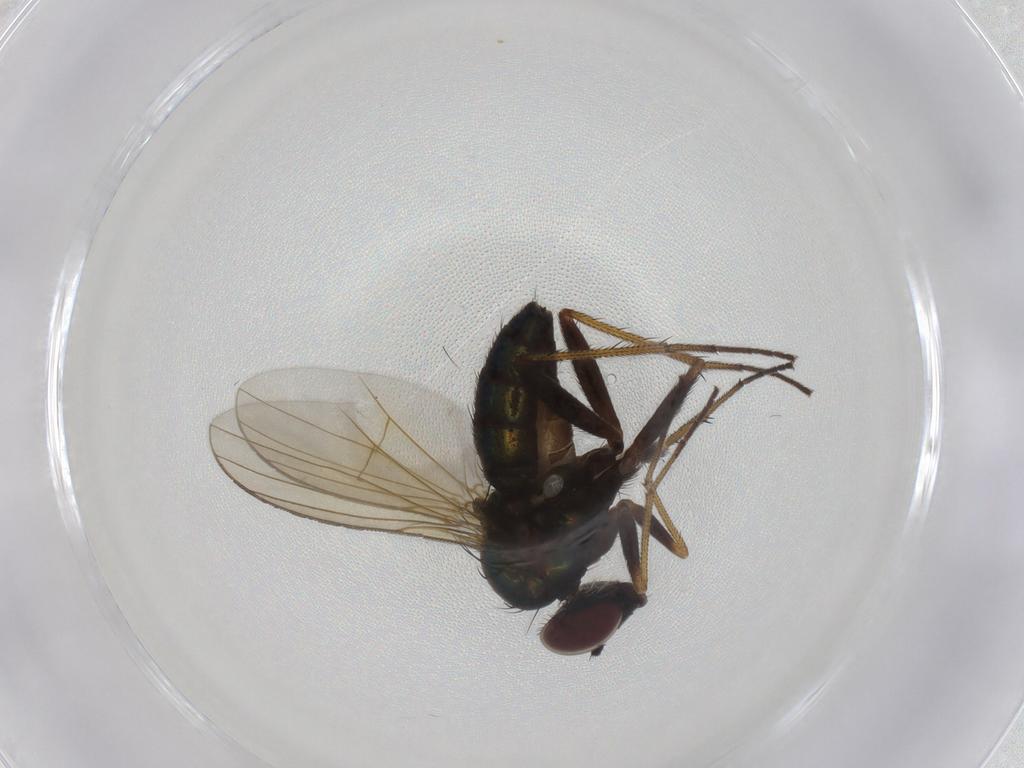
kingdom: Animalia
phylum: Arthropoda
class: Insecta
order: Diptera
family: Dolichopodidae
